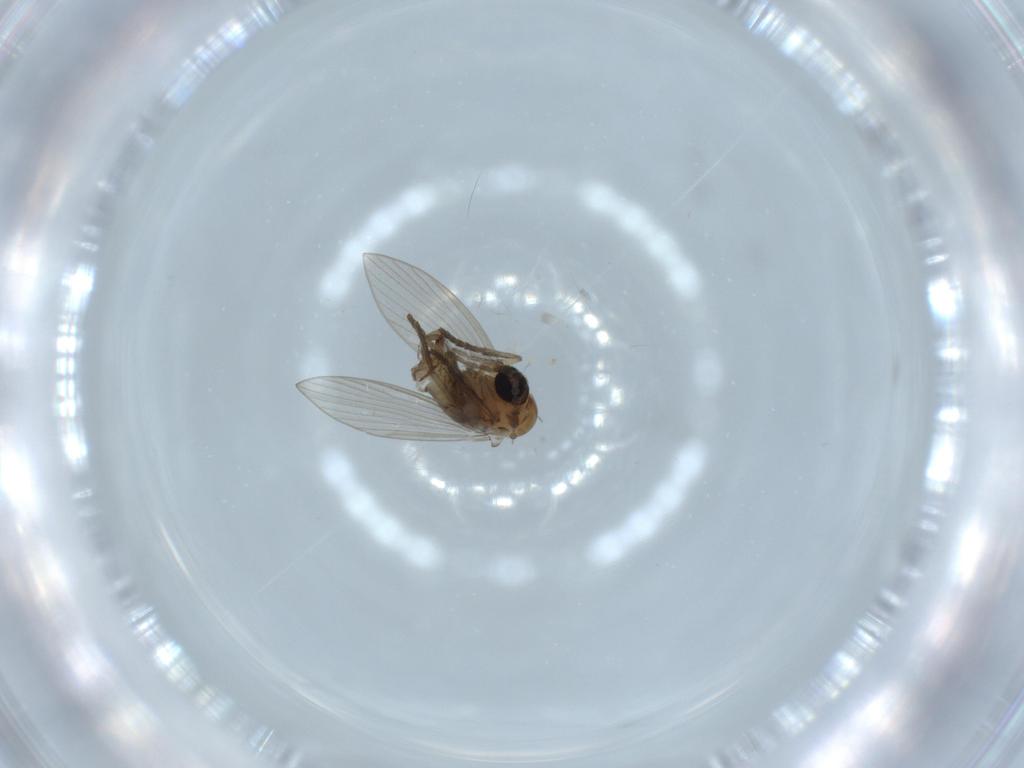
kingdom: Animalia
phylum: Arthropoda
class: Insecta
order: Diptera
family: Psychodidae
